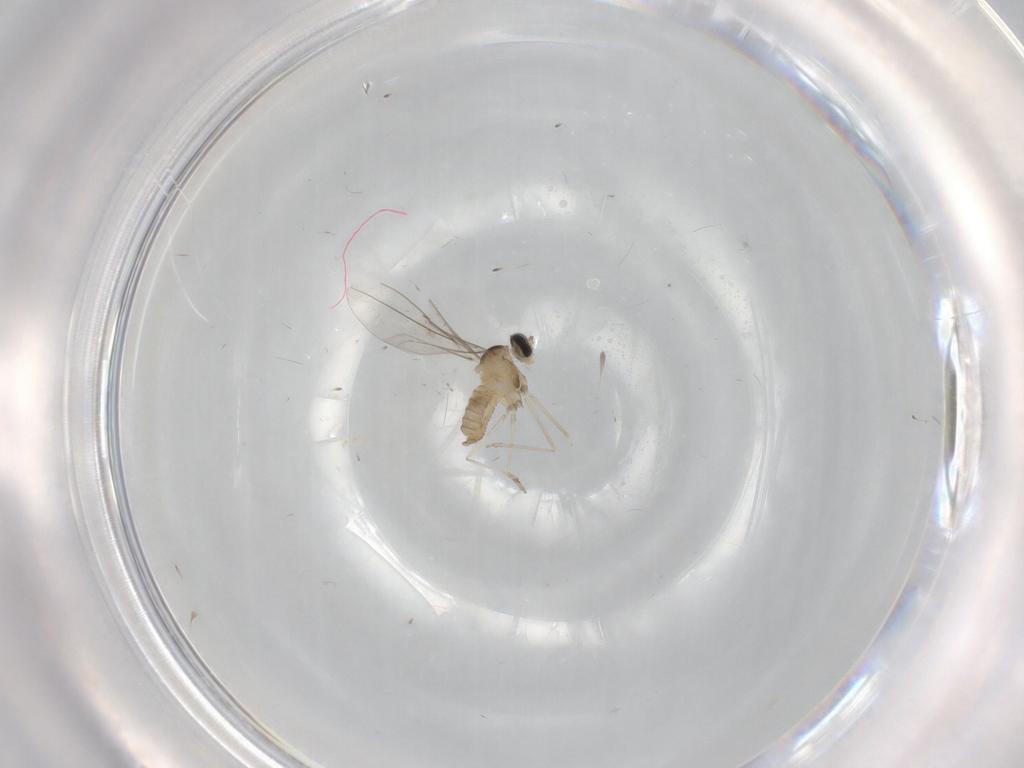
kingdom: Animalia
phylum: Arthropoda
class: Insecta
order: Diptera
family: Cecidomyiidae
